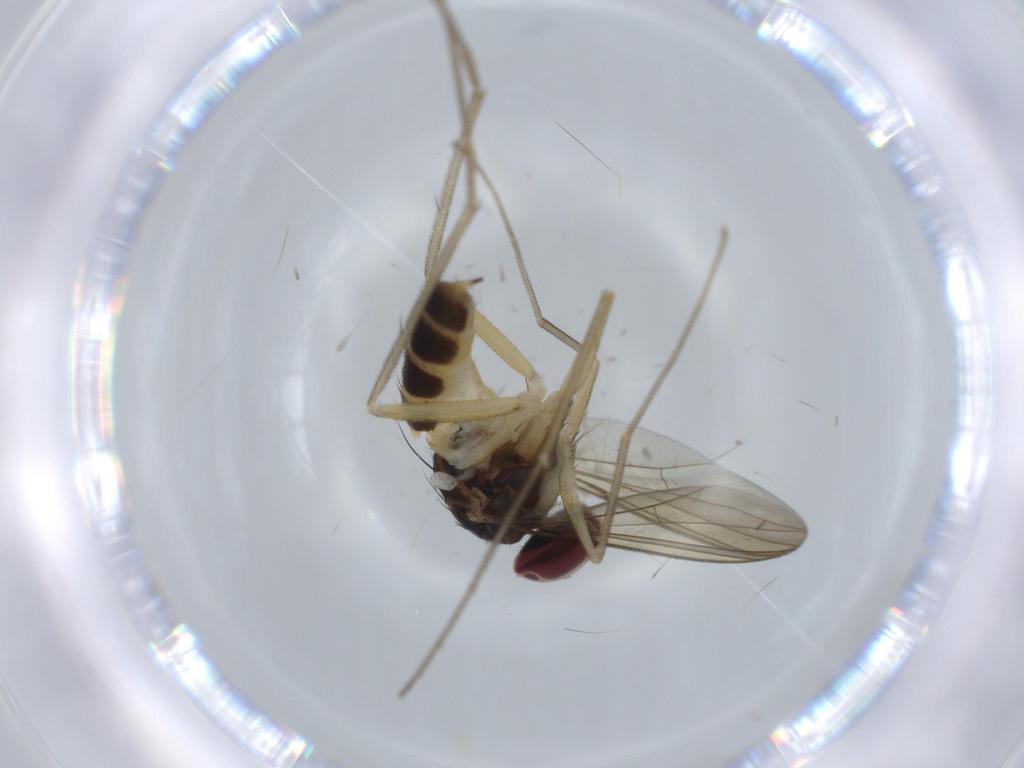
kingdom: Animalia
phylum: Arthropoda
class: Insecta
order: Diptera
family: Dolichopodidae
